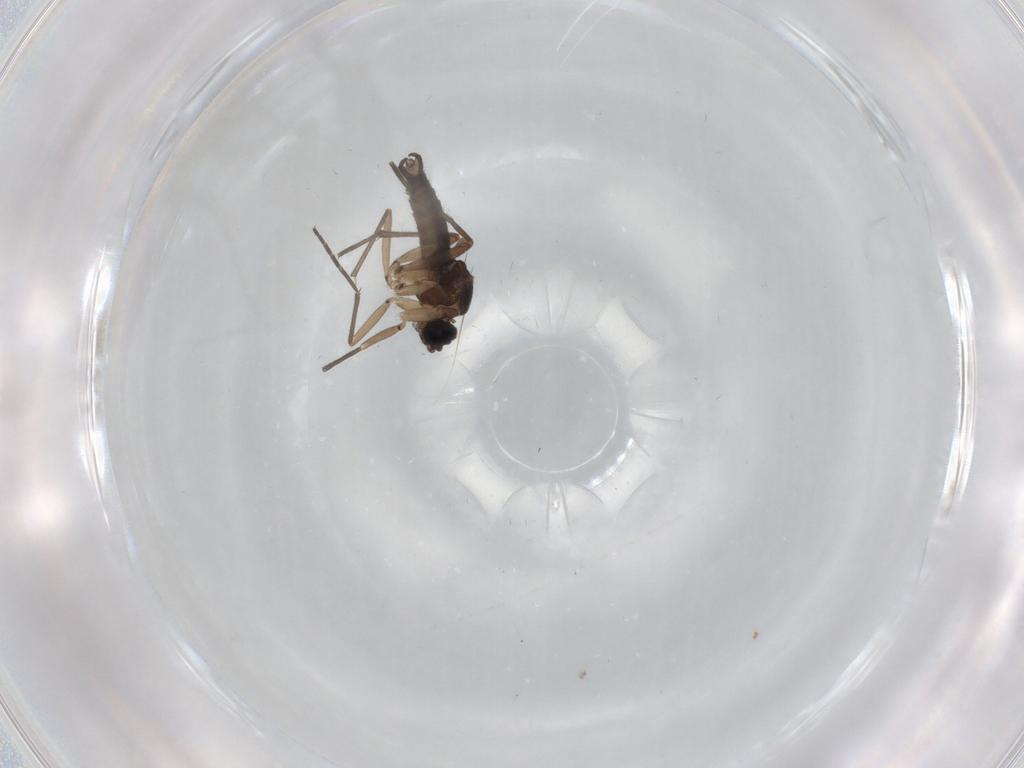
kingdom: Animalia
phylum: Arthropoda
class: Insecta
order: Diptera
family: Sciaridae
